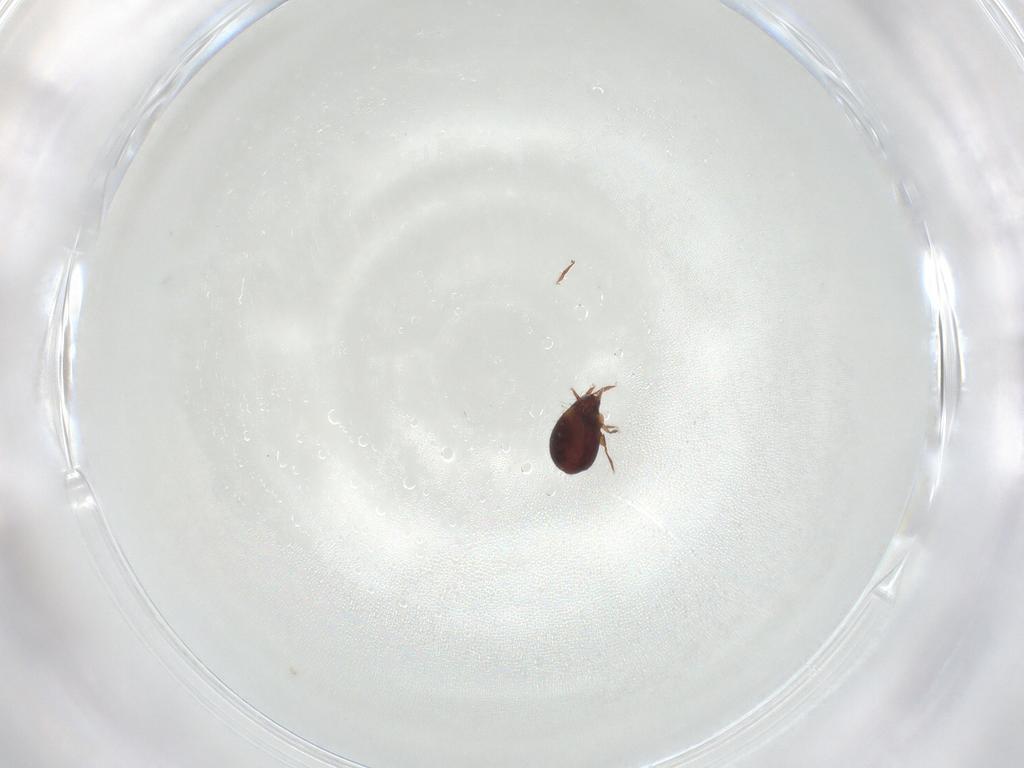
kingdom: Animalia
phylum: Arthropoda
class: Arachnida
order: Sarcoptiformes
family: Humerobatidae
